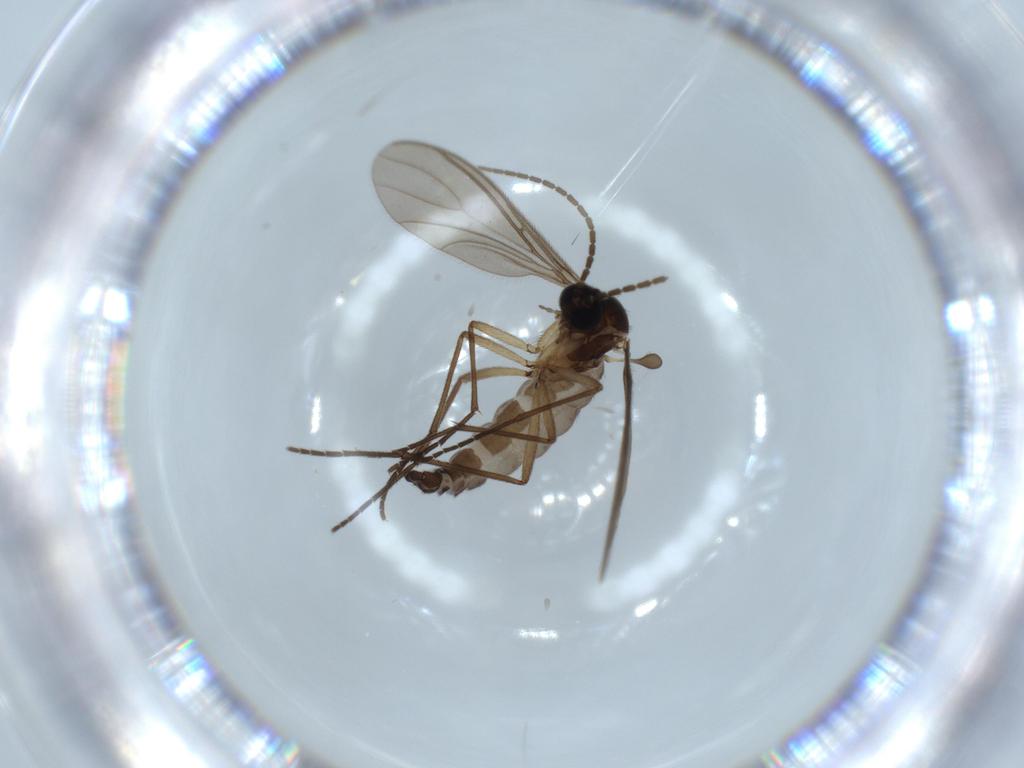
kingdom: Animalia
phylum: Arthropoda
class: Insecta
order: Diptera
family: Sciaridae
